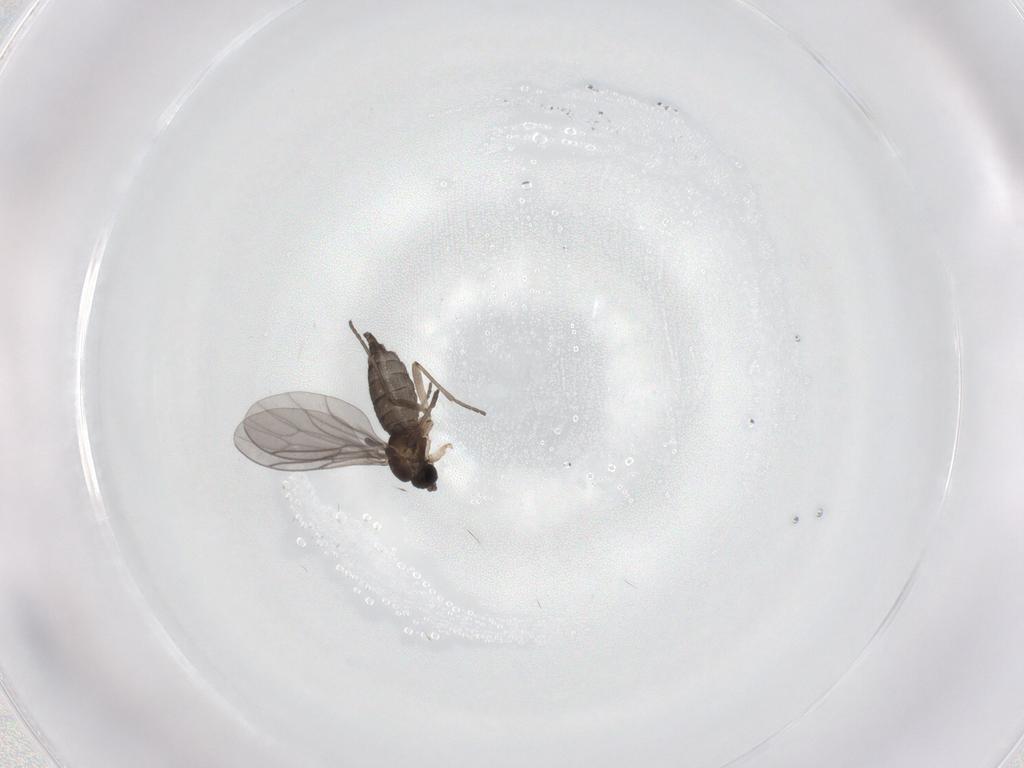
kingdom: Animalia
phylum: Arthropoda
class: Insecta
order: Diptera
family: Sciaridae
